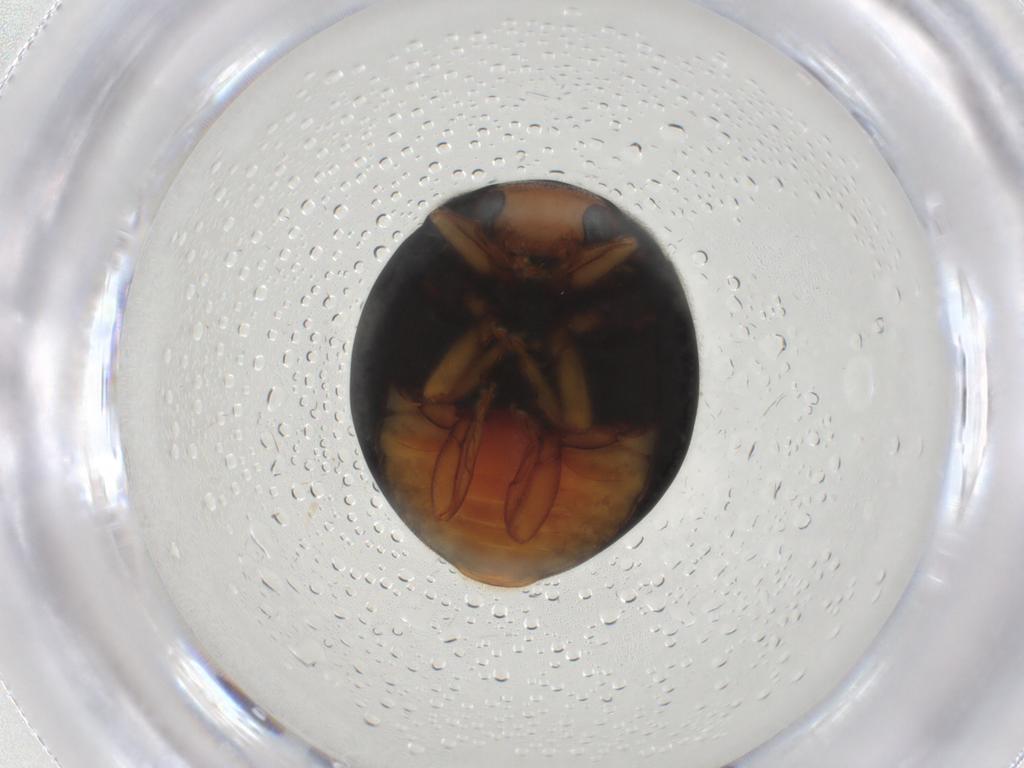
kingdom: Animalia
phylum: Arthropoda
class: Insecta
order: Coleoptera
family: Coccinellidae
